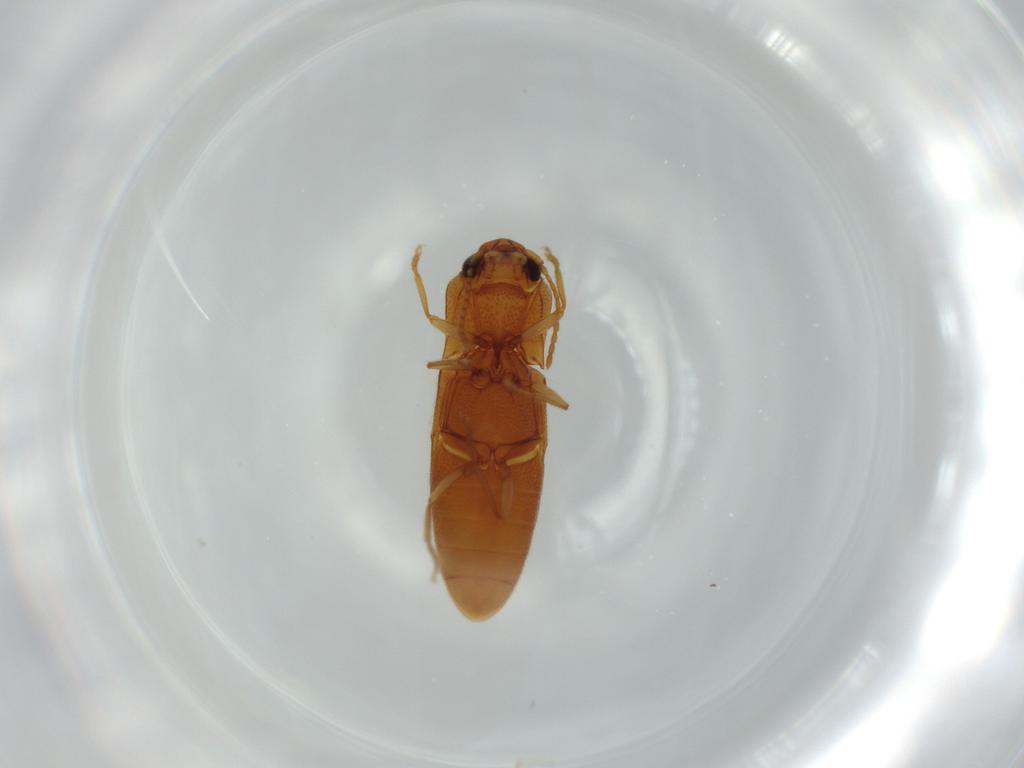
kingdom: Animalia
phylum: Arthropoda
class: Insecta
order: Coleoptera
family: Elateridae
